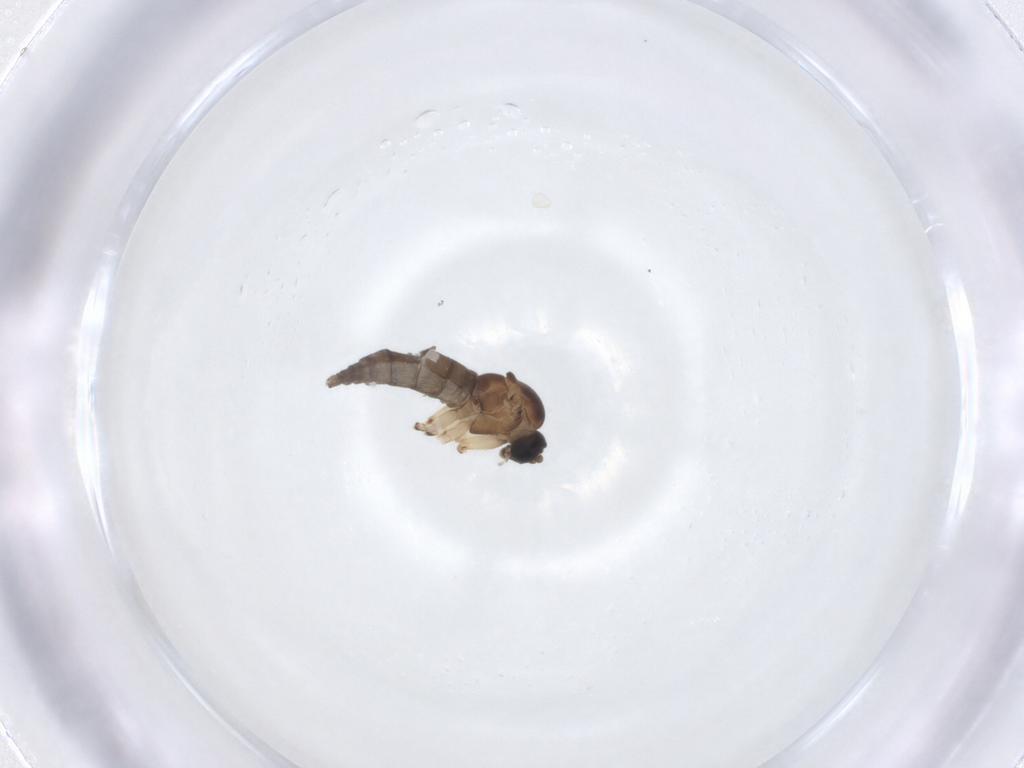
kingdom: Animalia
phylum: Arthropoda
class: Insecta
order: Diptera
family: Sciaridae
